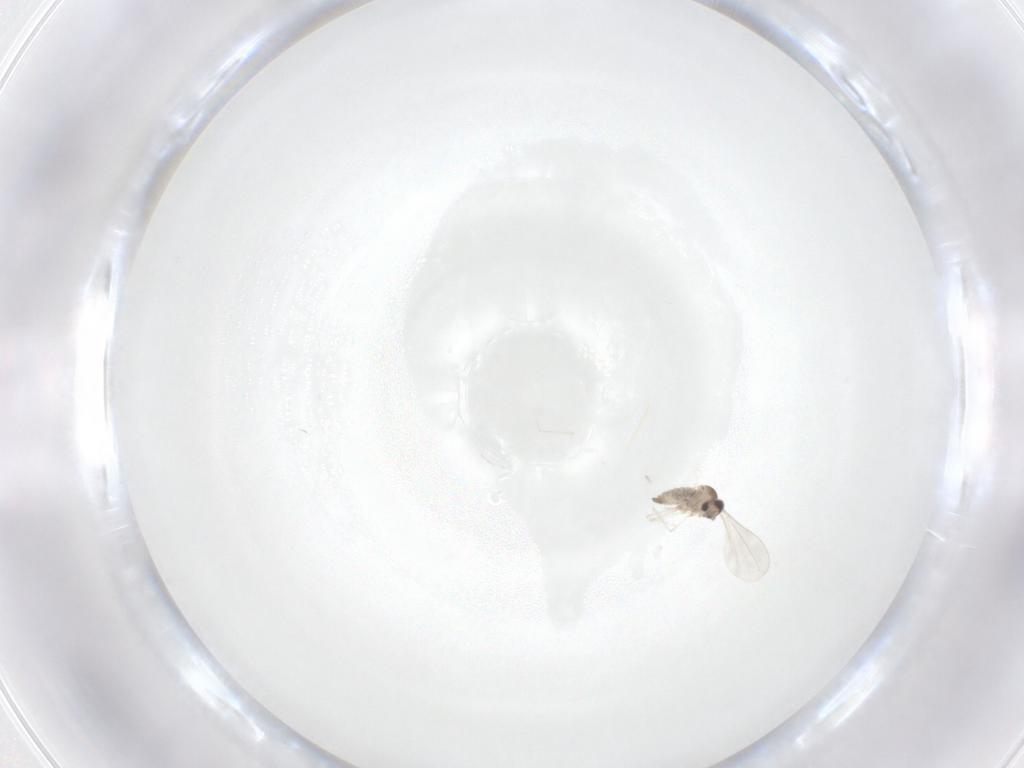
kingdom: Animalia
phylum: Arthropoda
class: Insecta
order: Diptera
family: Cecidomyiidae
